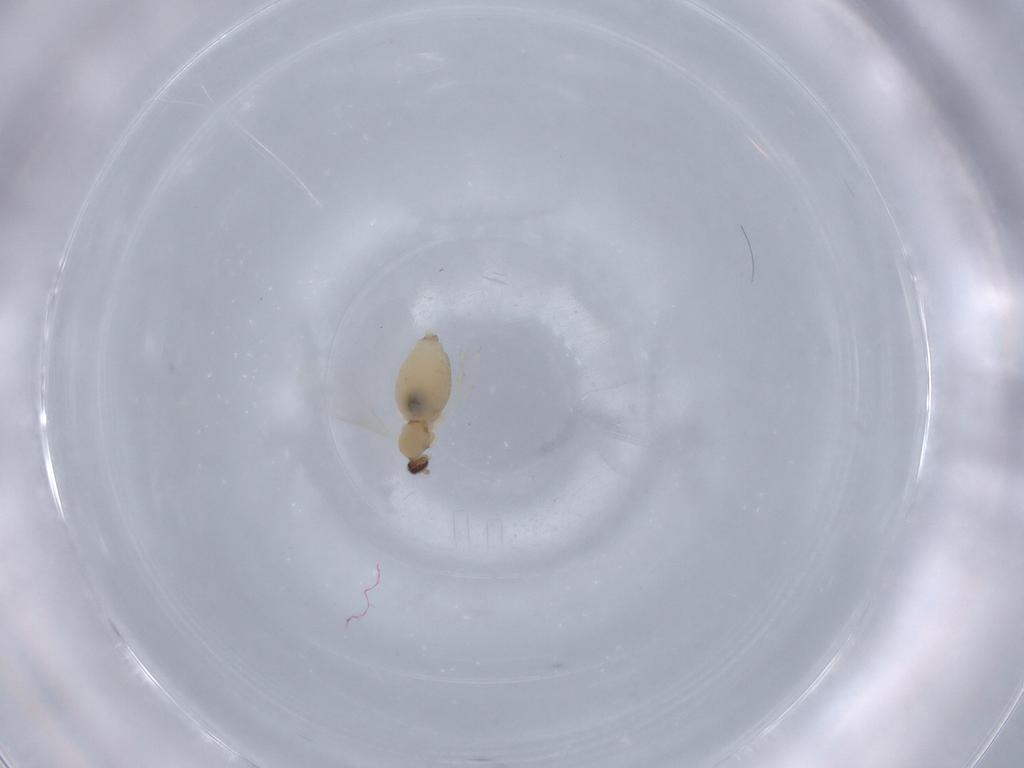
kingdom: Animalia
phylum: Arthropoda
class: Insecta
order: Diptera
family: Cecidomyiidae
